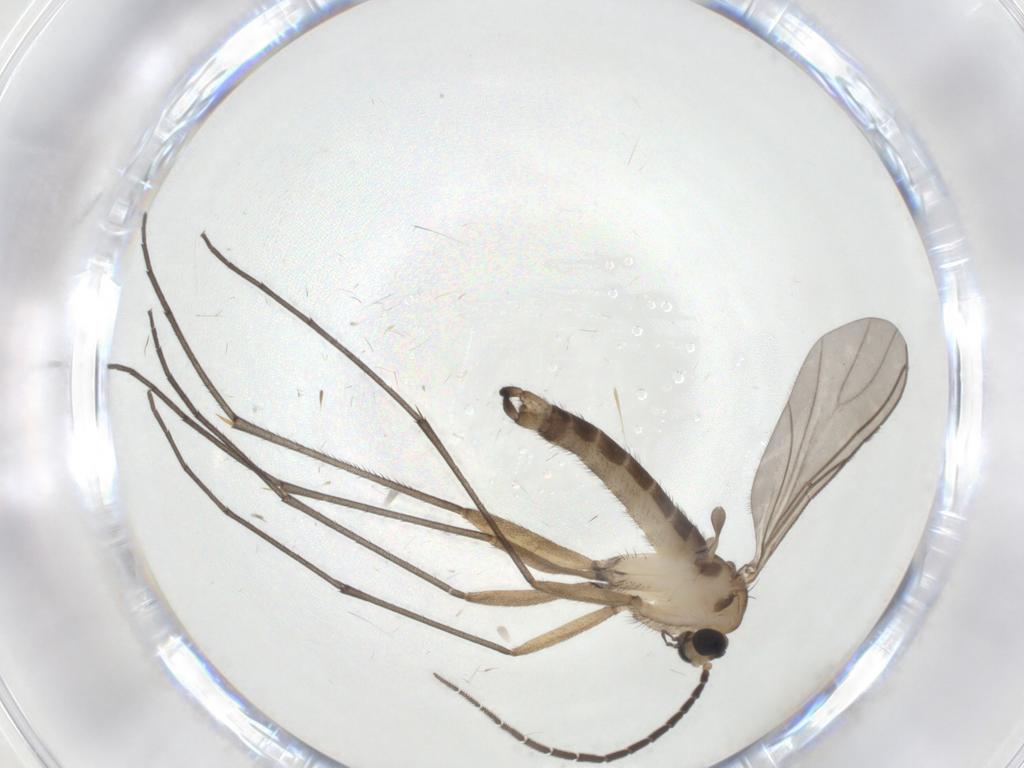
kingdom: Animalia
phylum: Arthropoda
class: Insecta
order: Diptera
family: Sciaridae
